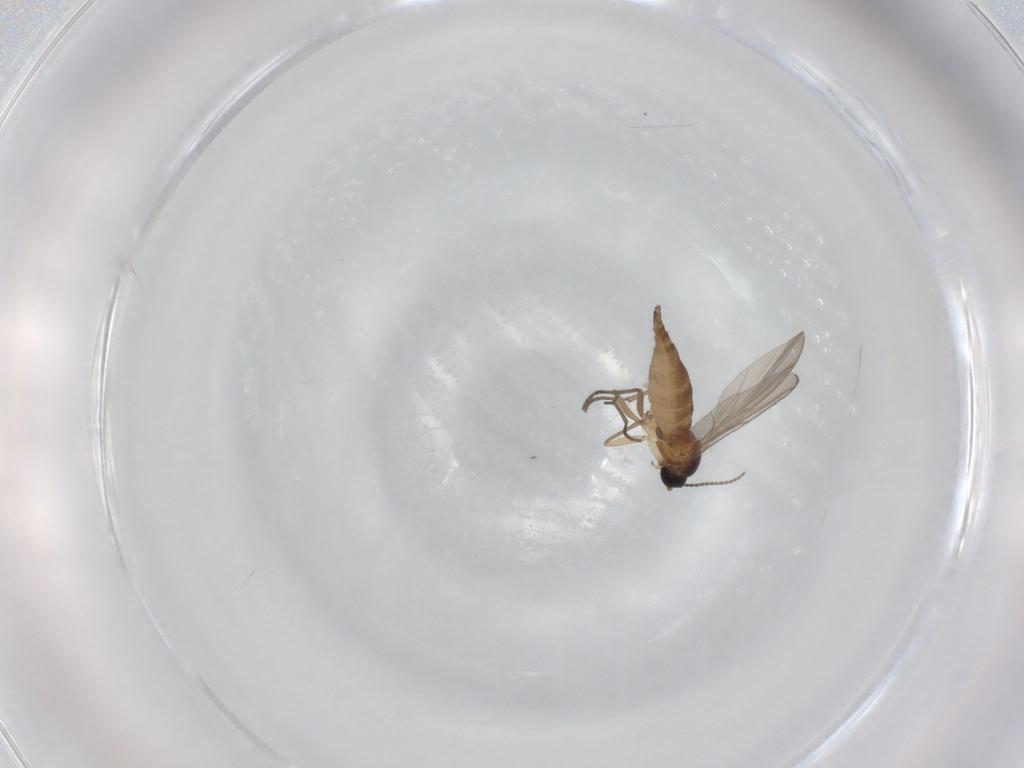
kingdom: Animalia
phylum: Arthropoda
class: Insecta
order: Diptera
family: Sciaridae
